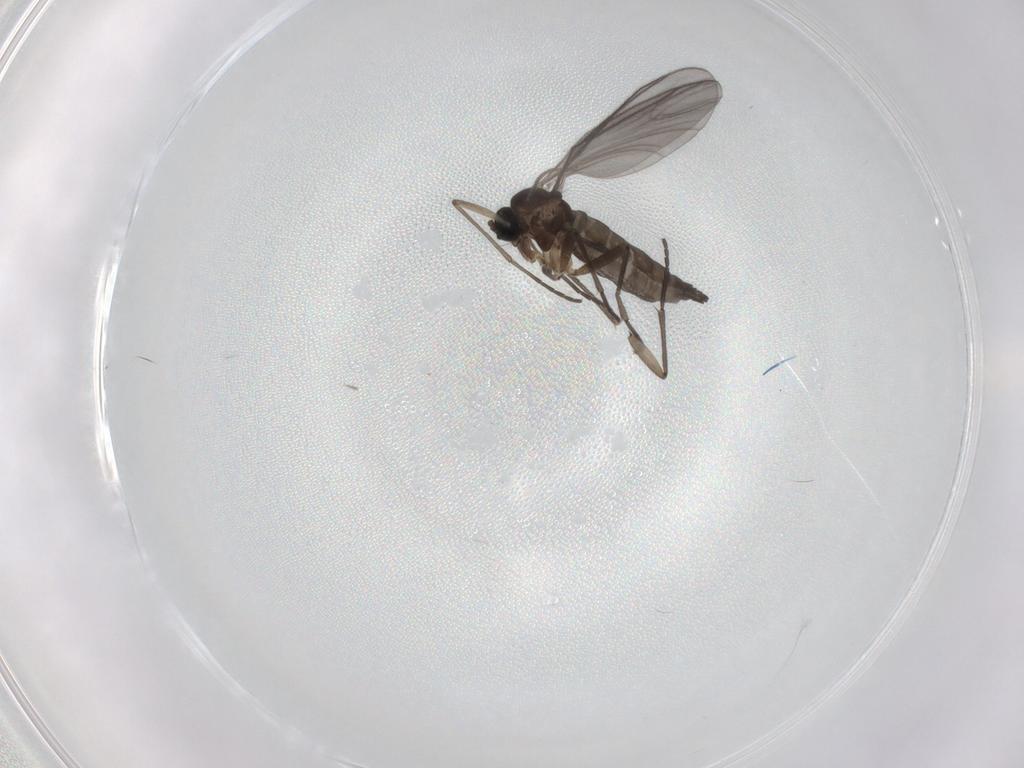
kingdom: Animalia
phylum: Arthropoda
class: Insecta
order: Diptera
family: Sciaridae
